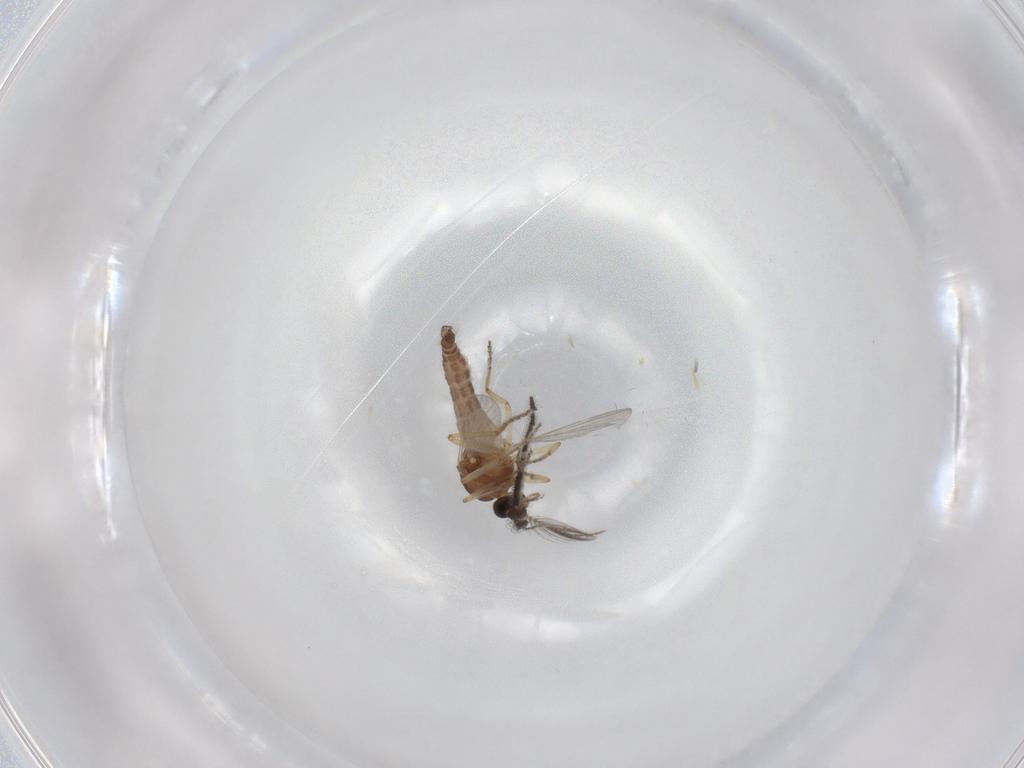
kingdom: Animalia
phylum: Arthropoda
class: Insecta
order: Diptera
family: Ceratopogonidae
